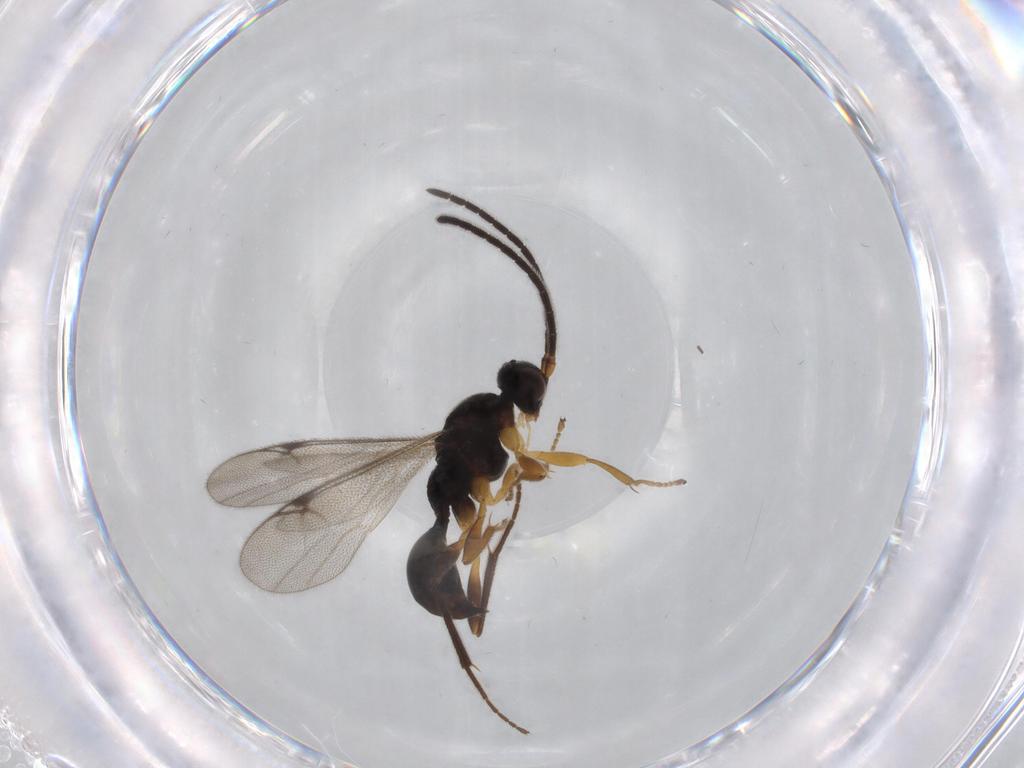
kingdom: Animalia
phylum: Arthropoda
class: Insecta
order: Hymenoptera
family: Proctotrupidae
